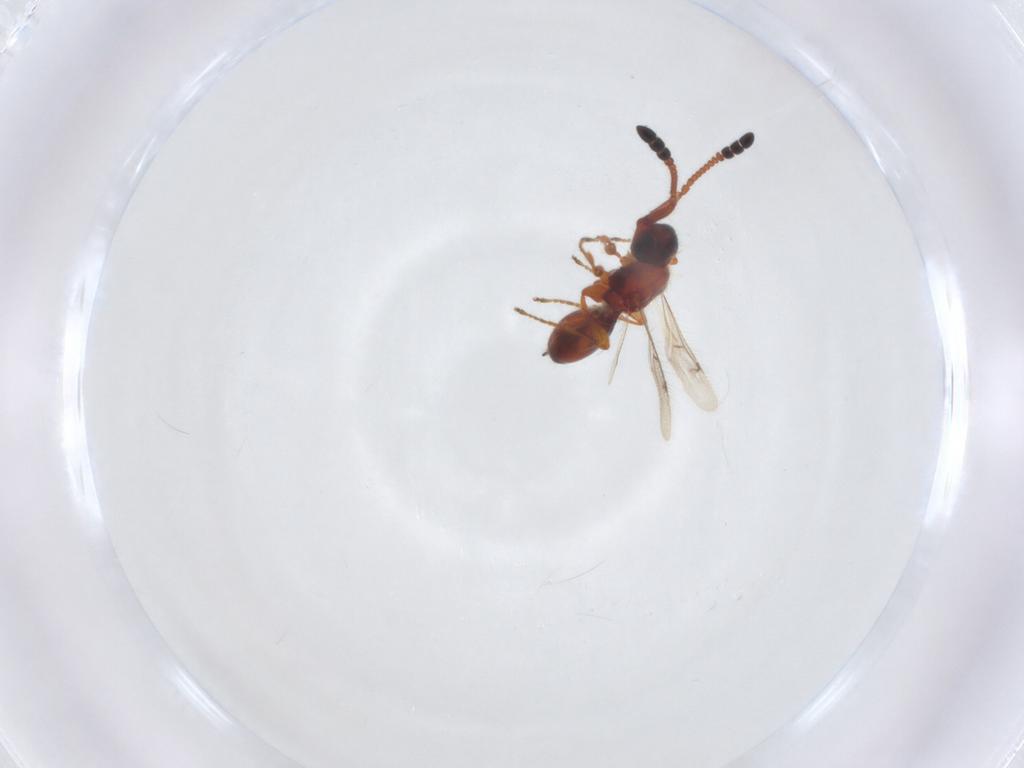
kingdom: Animalia
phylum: Arthropoda
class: Insecta
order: Hymenoptera
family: Diapriidae
